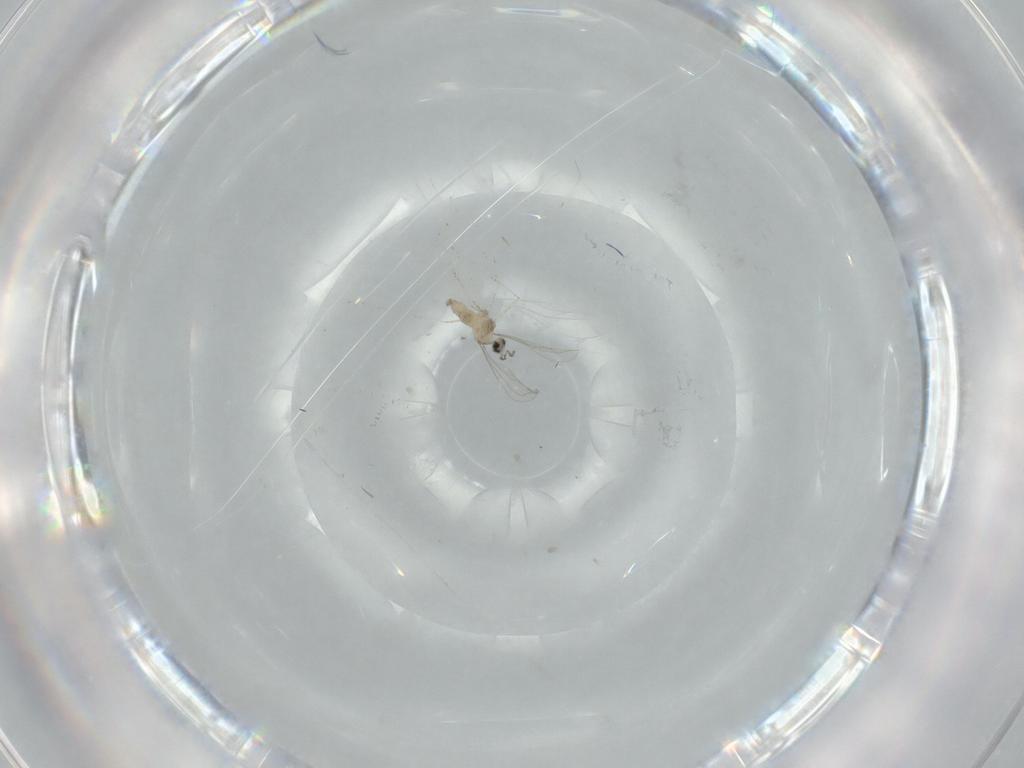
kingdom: Animalia
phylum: Arthropoda
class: Insecta
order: Diptera
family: Cecidomyiidae
